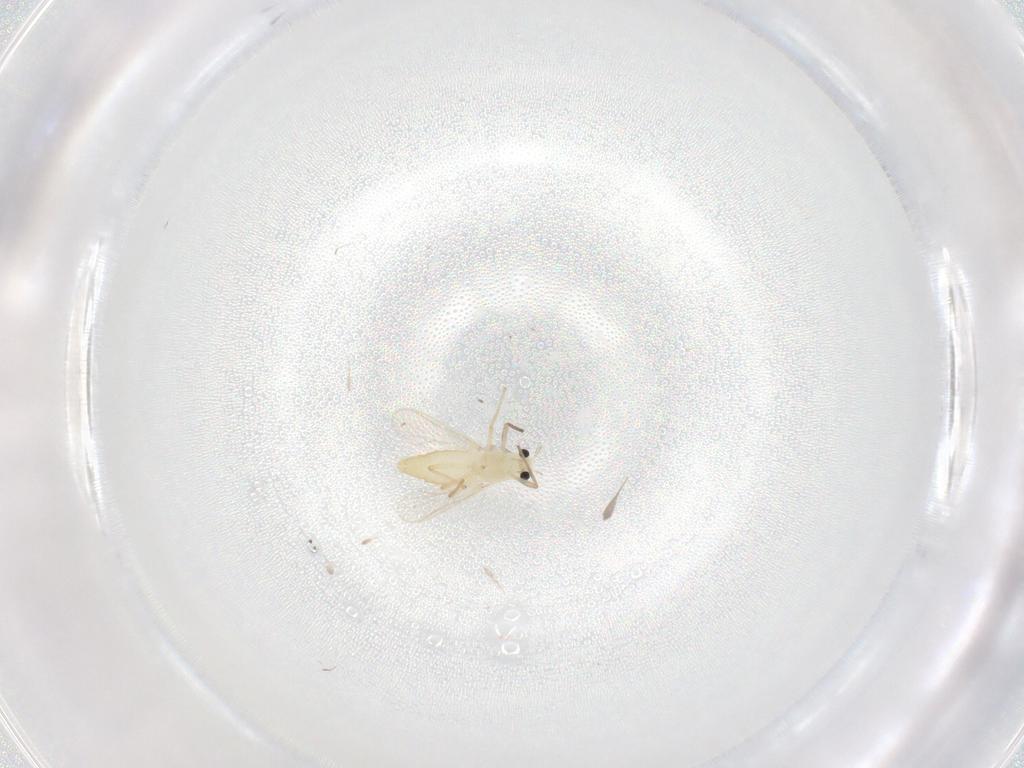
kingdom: Animalia
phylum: Arthropoda
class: Insecta
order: Diptera
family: Chironomidae
